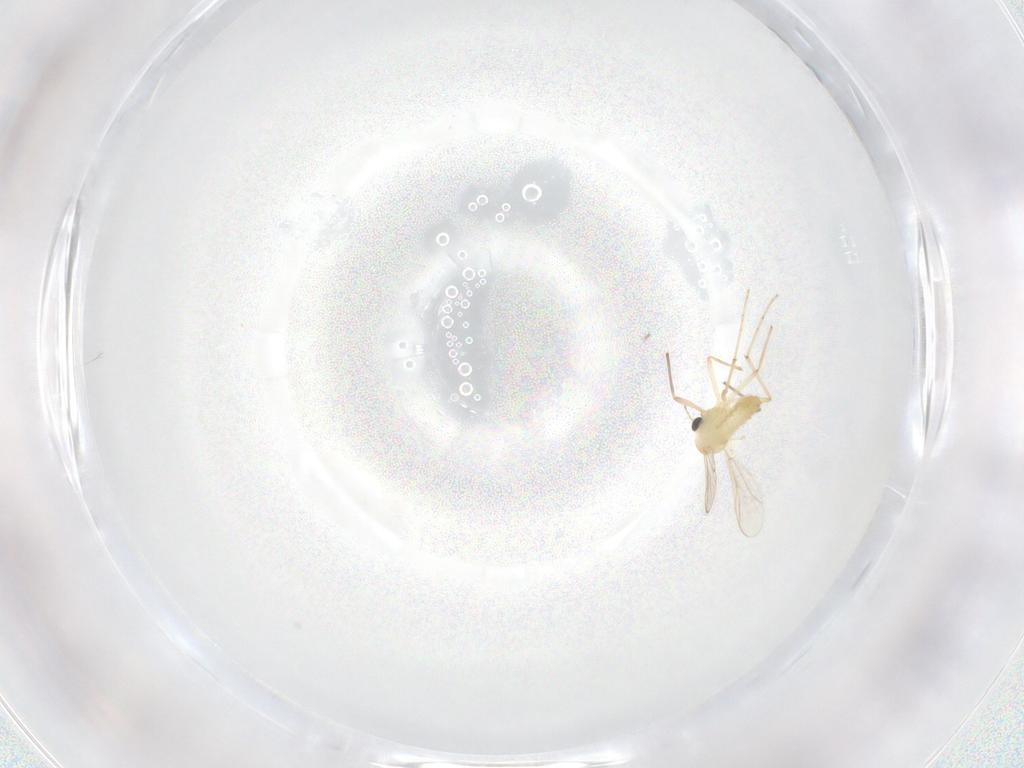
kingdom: Animalia
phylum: Arthropoda
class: Insecta
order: Diptera
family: Chironomidae
